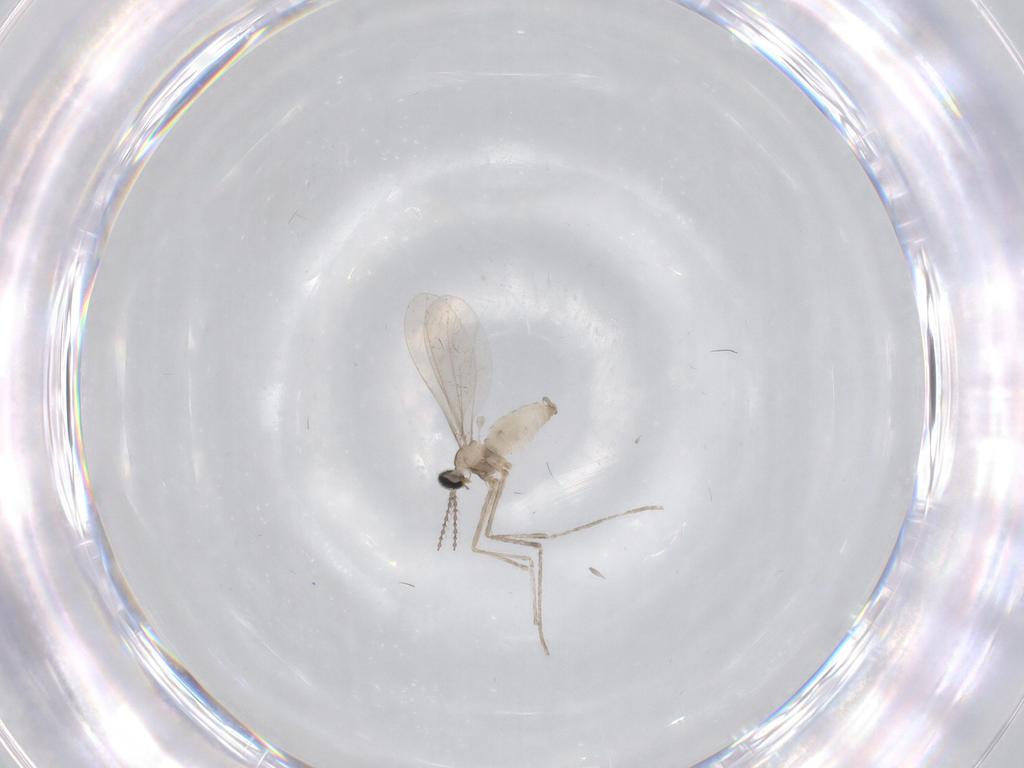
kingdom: Animalia
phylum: Arthropoda
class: Insecta
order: Diptera
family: Cecidomyiidae
